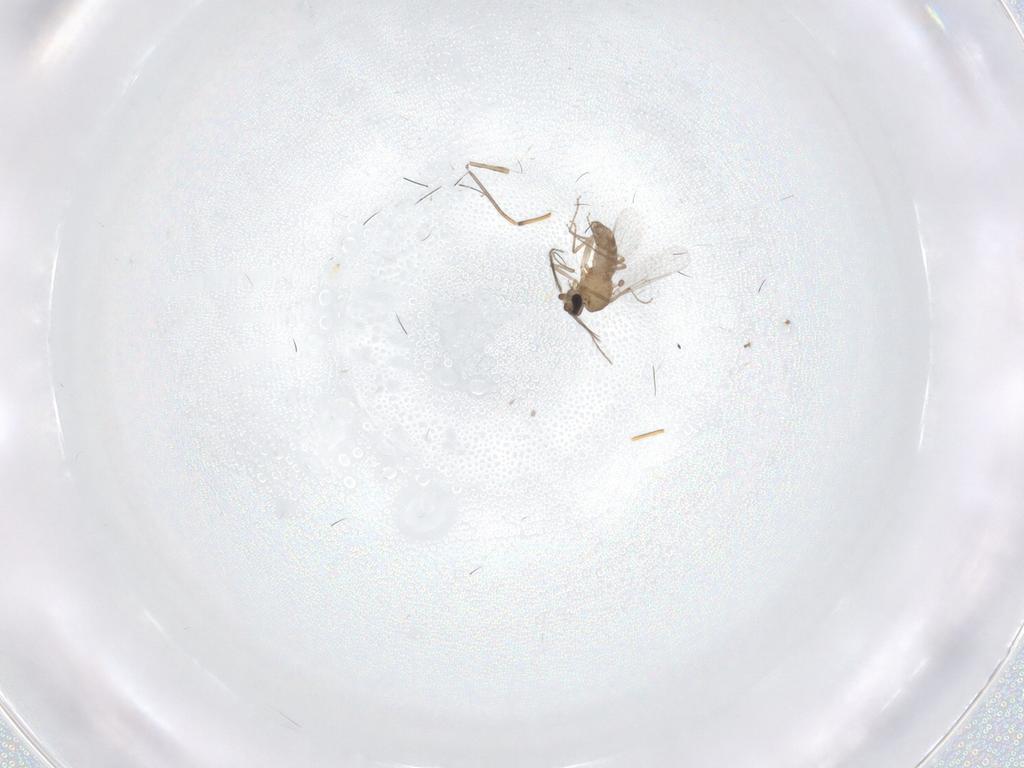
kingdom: Animalia
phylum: Arthropoda
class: Insecta
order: Diptera
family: Ceratopogonidae
